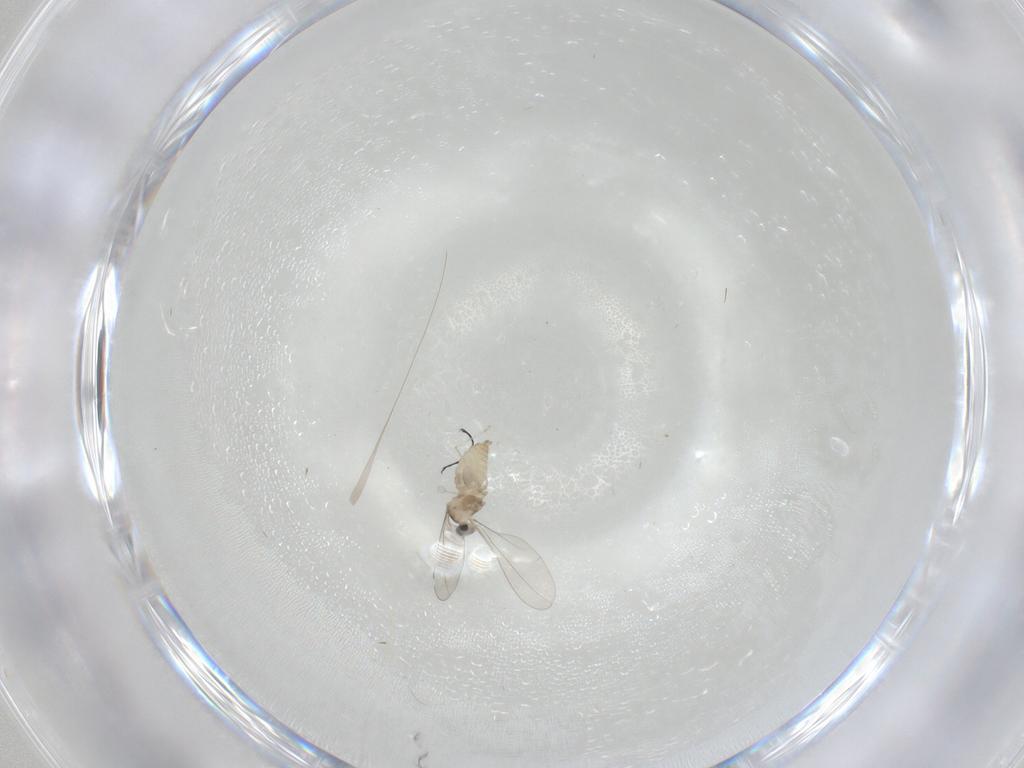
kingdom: Animalia
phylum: Arthropoda
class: Insecta
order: Diptera
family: Cecidomyiidae
